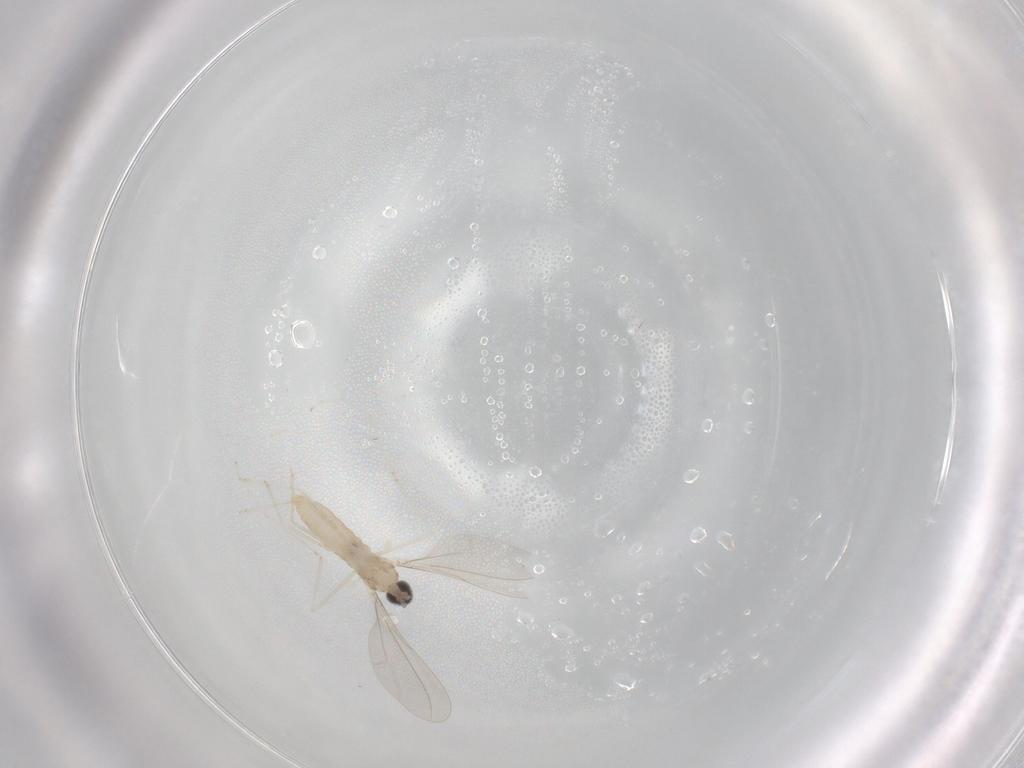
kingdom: Animalia
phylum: Arthropoda
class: Insecta
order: Diptera
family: Cecidomyiidae
